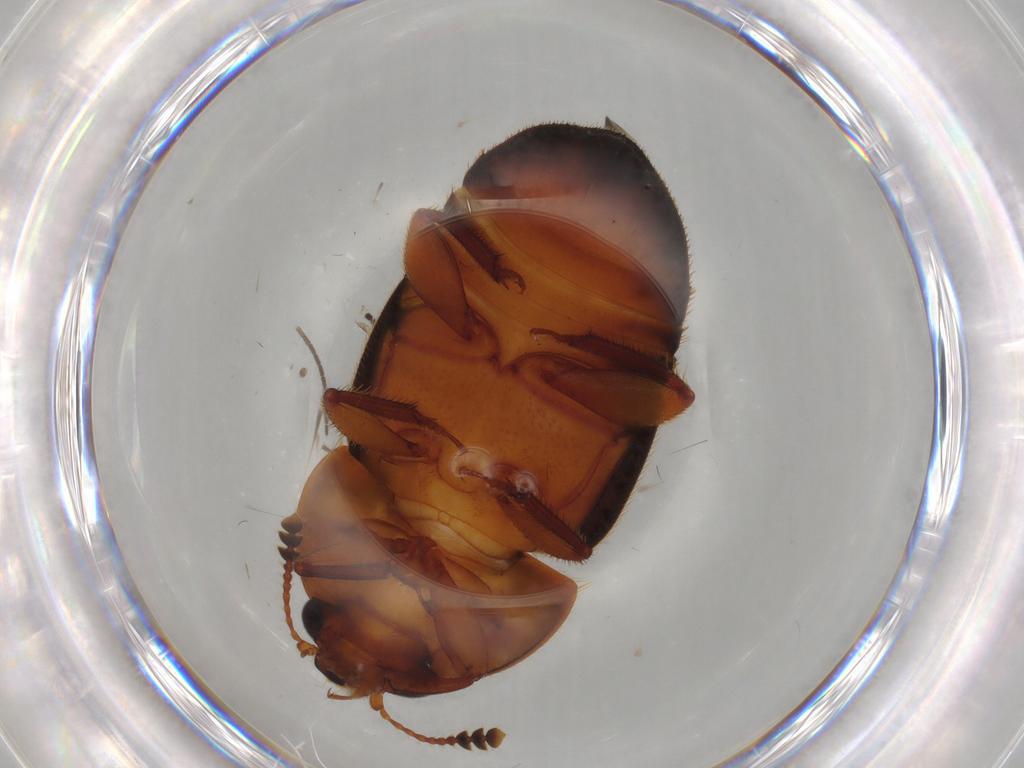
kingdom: Animalia
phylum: Arthropoda
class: Insecta
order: Coleoptera
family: Nitidulidae
